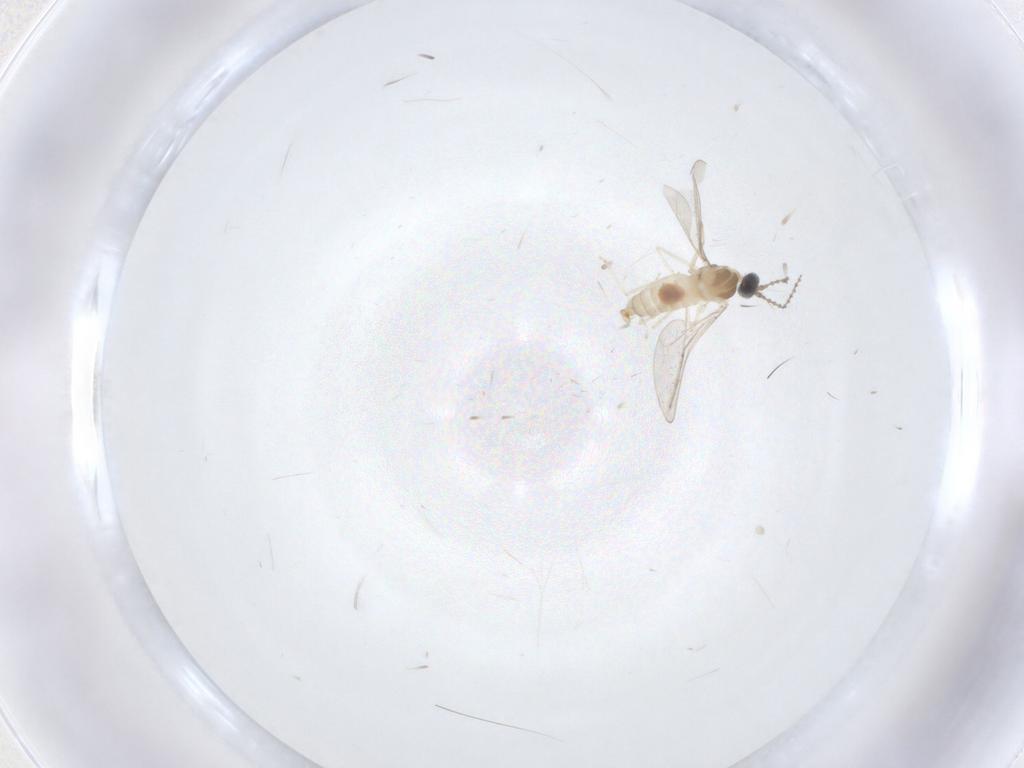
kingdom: Animalia
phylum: Arthropoda
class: Insecta
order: Diptera
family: Cecidomyiidae
